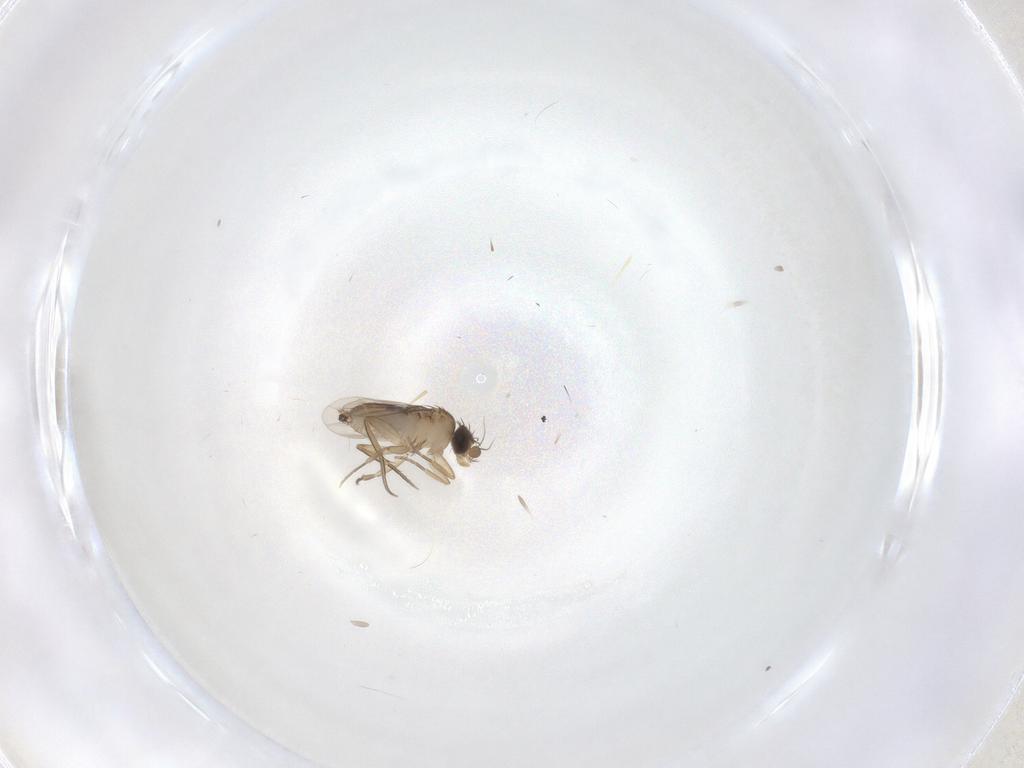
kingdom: Animalia
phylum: Arthropoda
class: Insecta
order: Diptera
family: Phoridae
